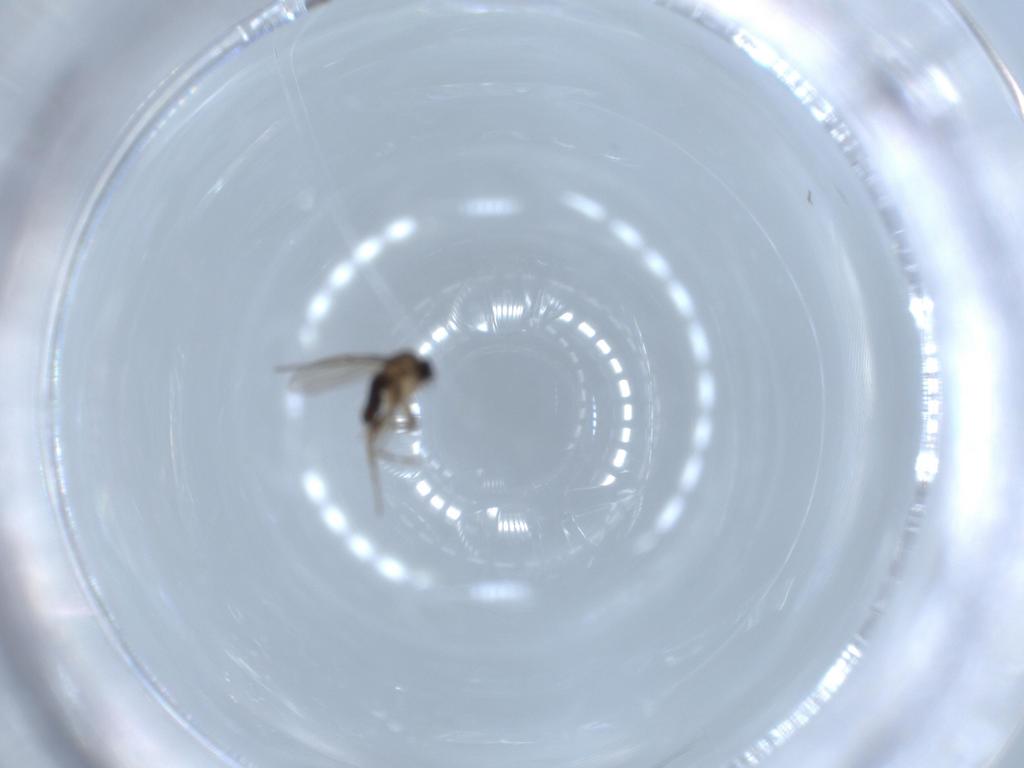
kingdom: Animalia
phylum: Arthropoda
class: Insecta
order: Diptera
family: Phoridae
